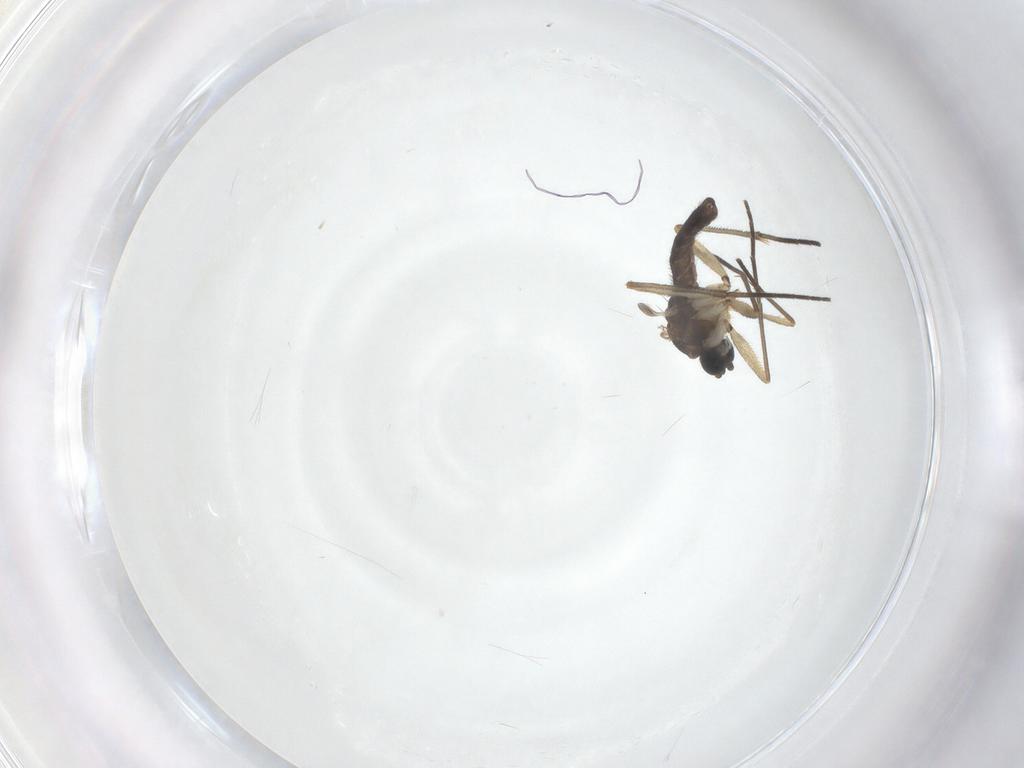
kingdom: Animalia
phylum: Arthropoda
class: Insecta
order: Diptera
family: Sciaridae
